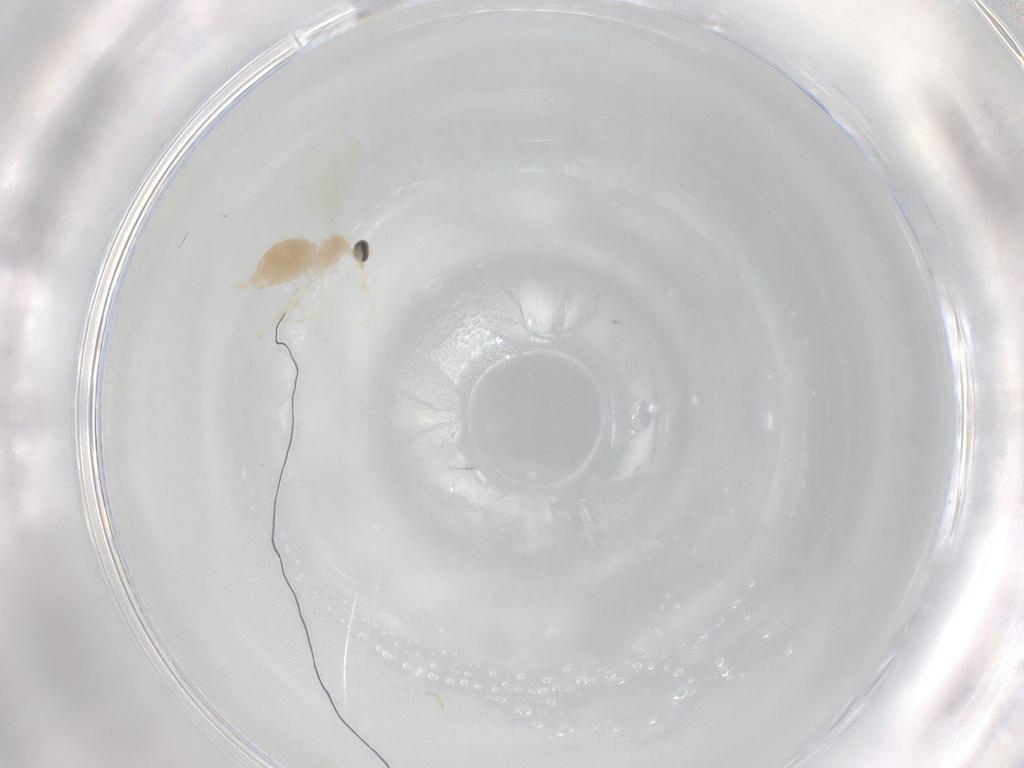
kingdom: Animalia
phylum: Arthropoda
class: Insecta
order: Diptera
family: Cecidomyiidae
